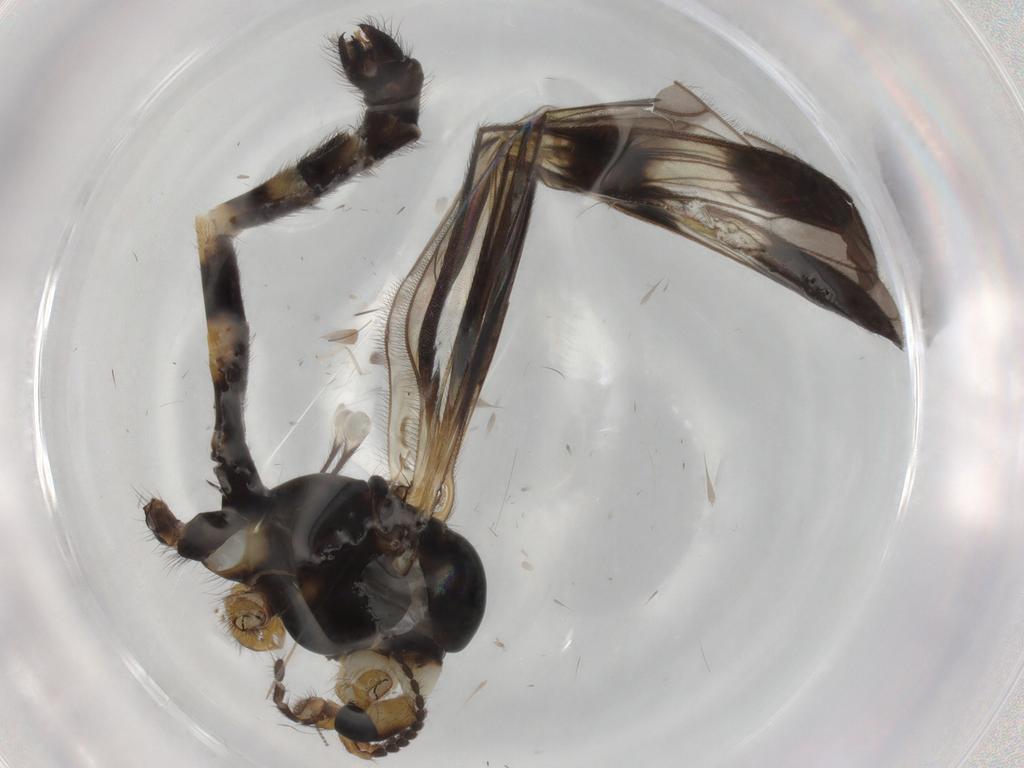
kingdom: Animalia
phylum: Arthropoda
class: Insecta
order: Diptera
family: Limoniidae
